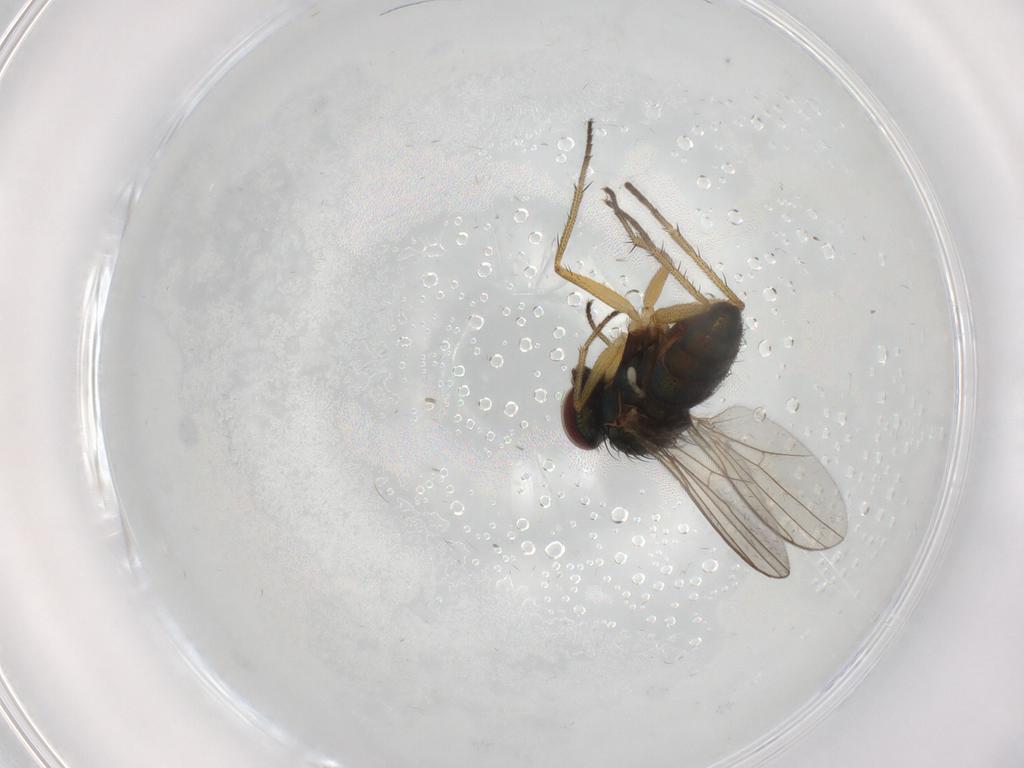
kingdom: Animalia
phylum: Arthropoda
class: Insecta
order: Diptera
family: Dolichopodidae
